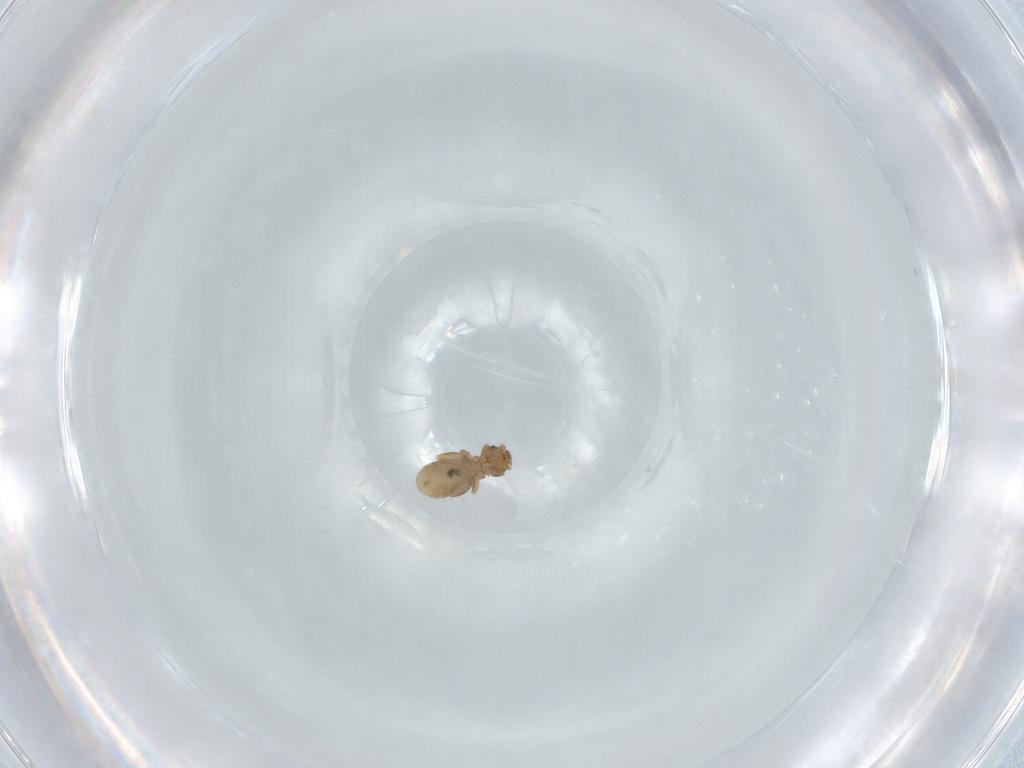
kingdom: Animalia
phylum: Arthropoda
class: Insecta
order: Psocodea
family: Liposcelididae
